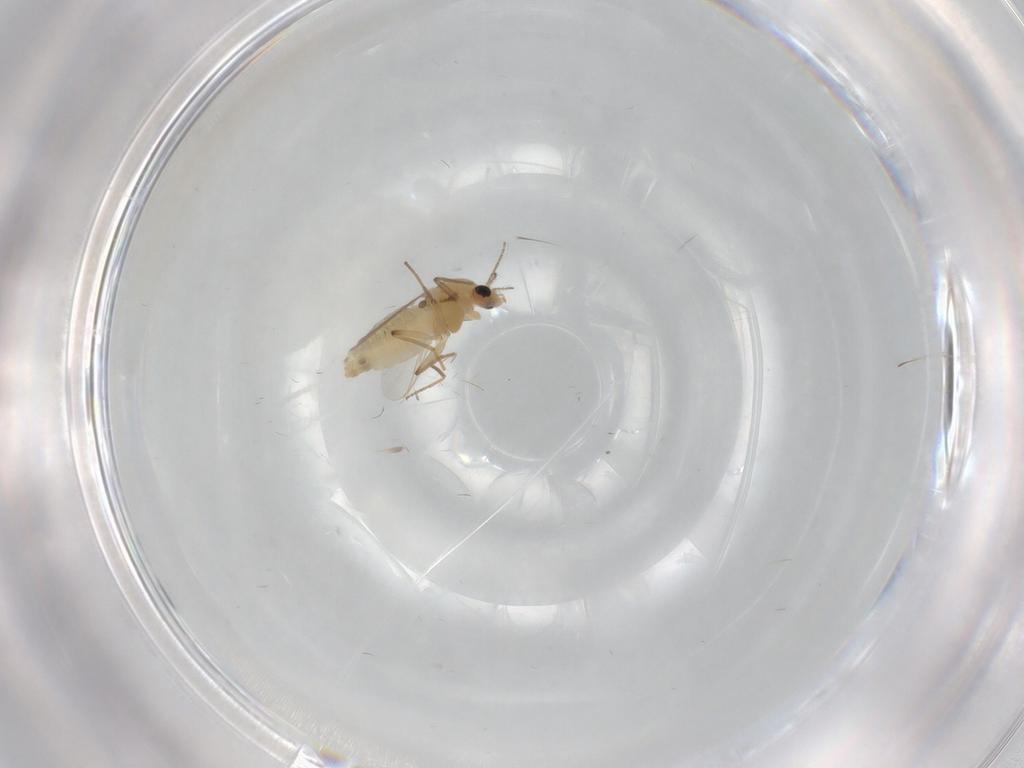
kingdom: Animalia
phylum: Arthropoda
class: Insecta
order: Diptera
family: Chironomidae
